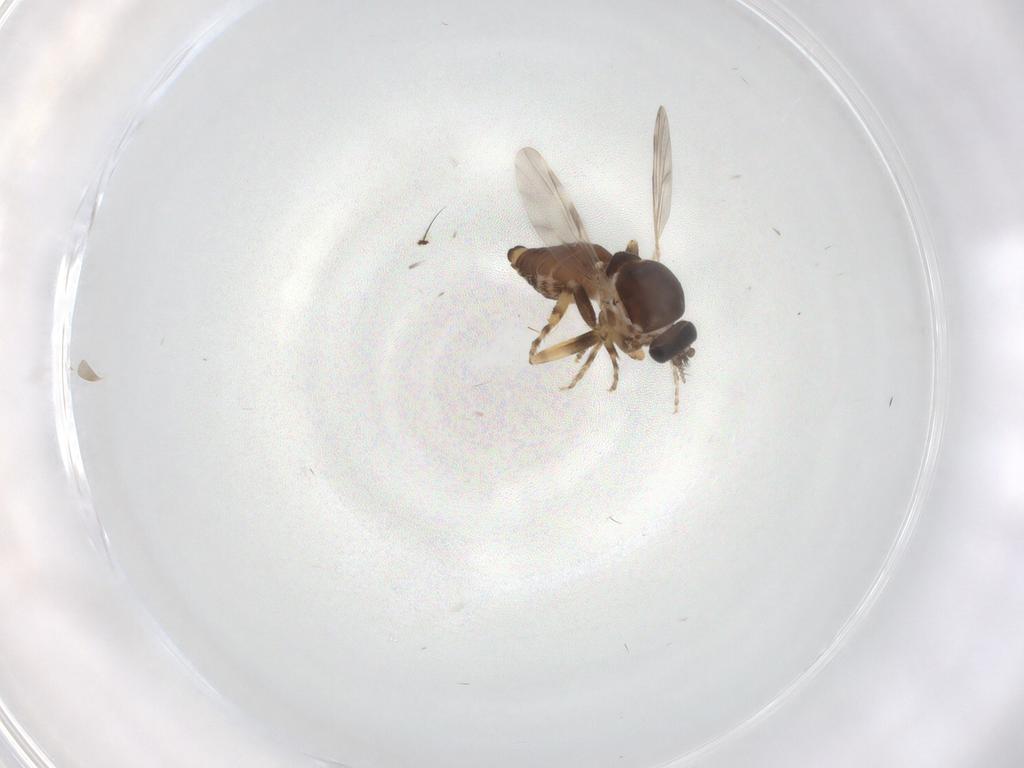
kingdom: Animalia
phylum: Arthropoda
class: Insecta
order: Diptera
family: Ceratopogonidae
